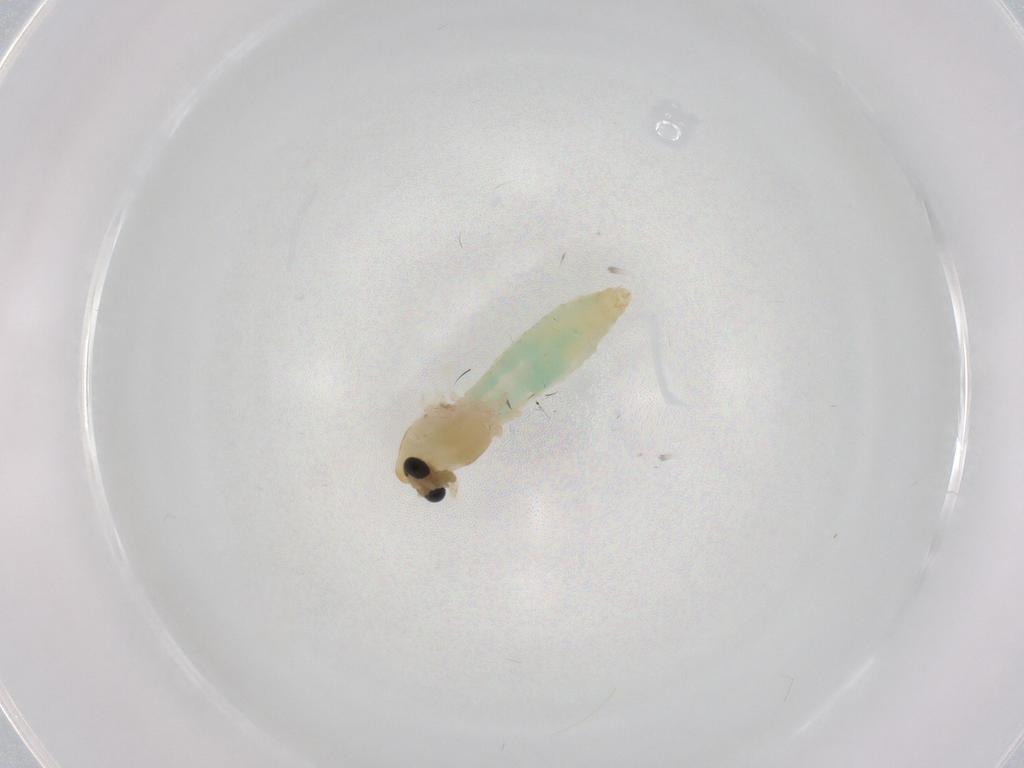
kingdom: Animalia
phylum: Arthropoda
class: Insecta
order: Diptera
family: Chironomidae
